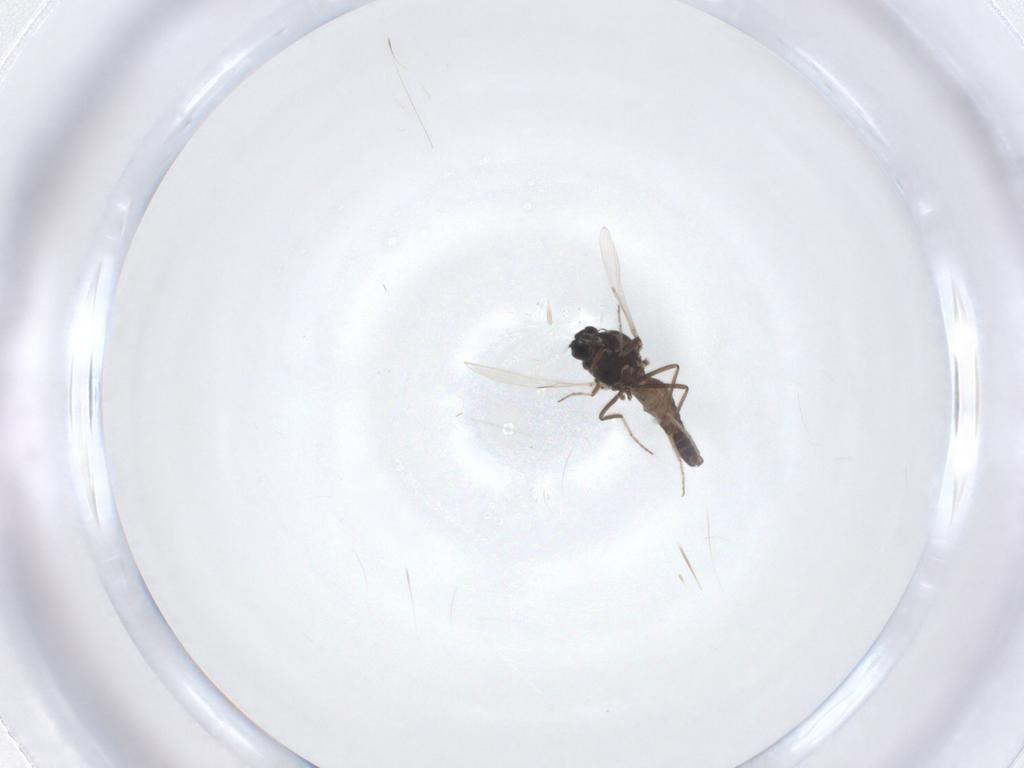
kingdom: Animalia
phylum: Arthropoda
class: Insecta
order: Diptera
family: Ceratopogonidae
